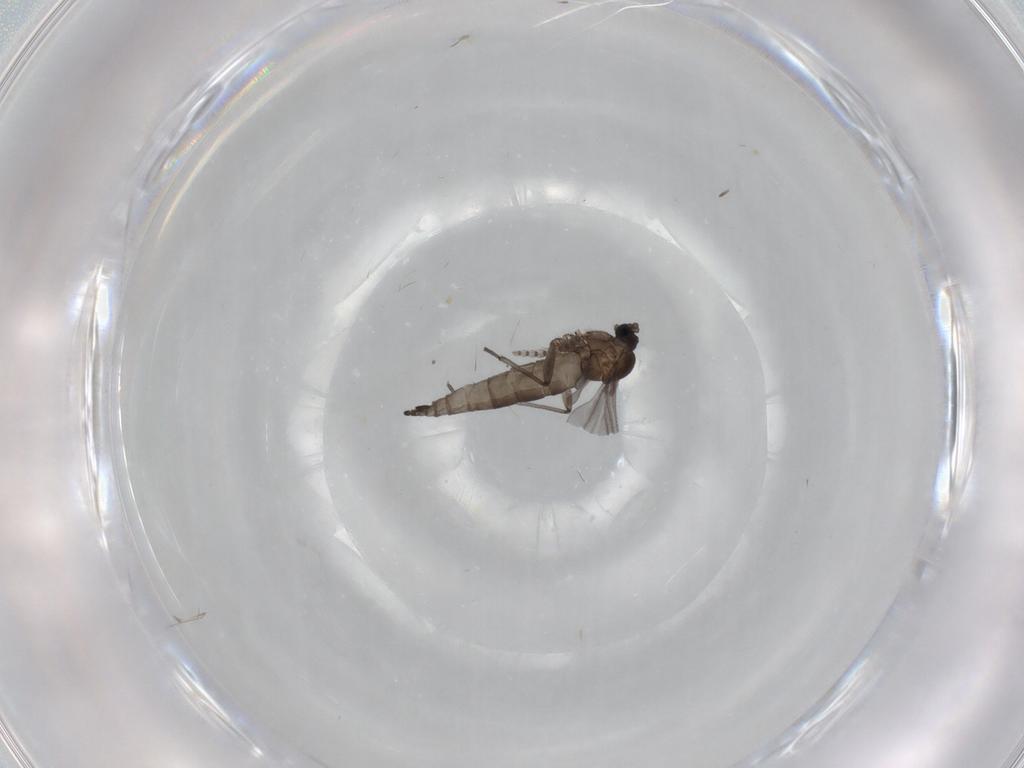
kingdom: Animalia
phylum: Arthropoda
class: Insecta
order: Diptera
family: Sciaridae
